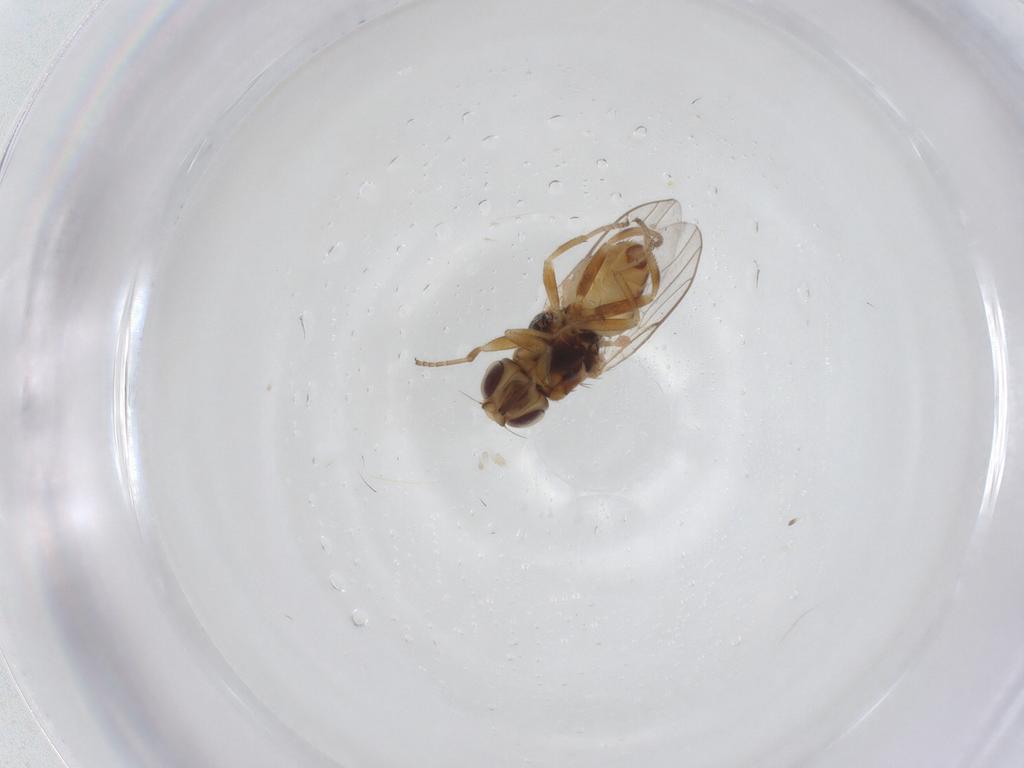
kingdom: Animalia
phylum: Arthropoda
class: Insecta
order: Diptera
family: Chloropidae
